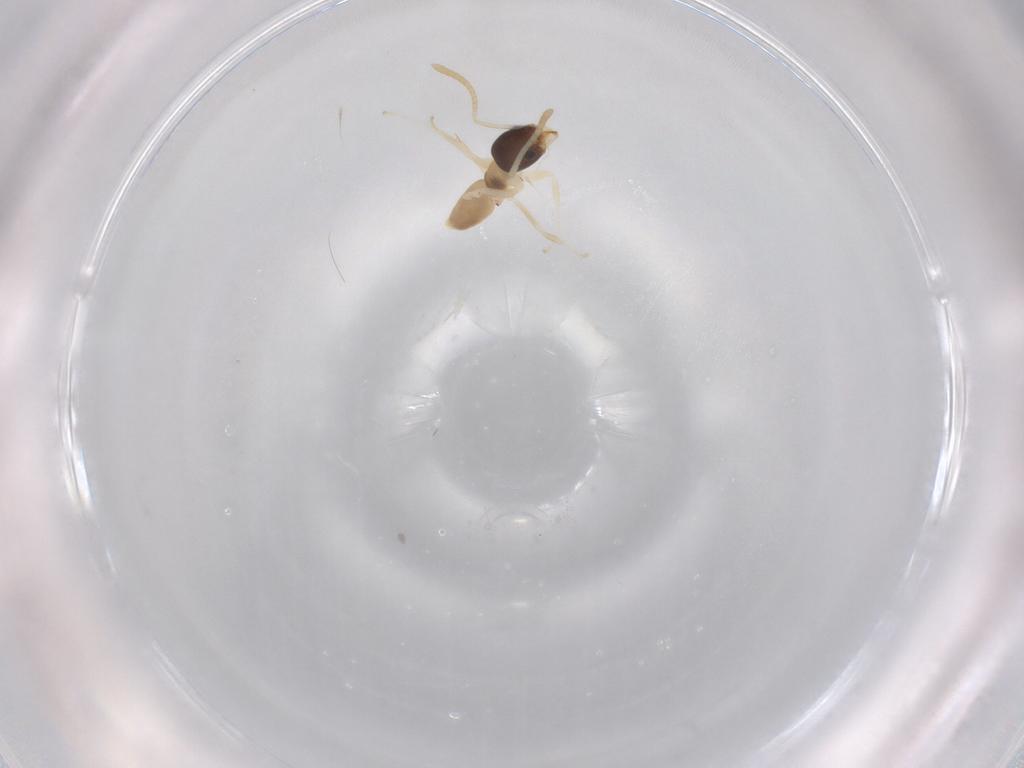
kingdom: Animalia
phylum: Arthropoda
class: Insecta
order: Hymenoptera
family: Formicidae
